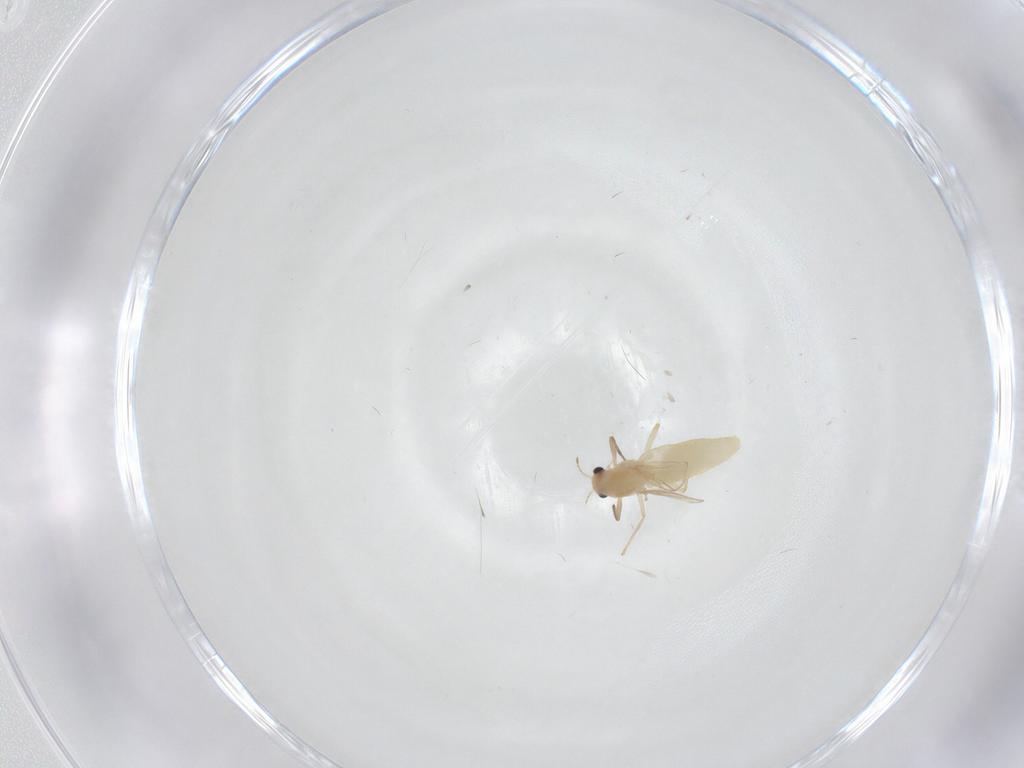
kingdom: Animalia
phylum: Arthropoda
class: Insecta
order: Diptera
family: Chironomidae
